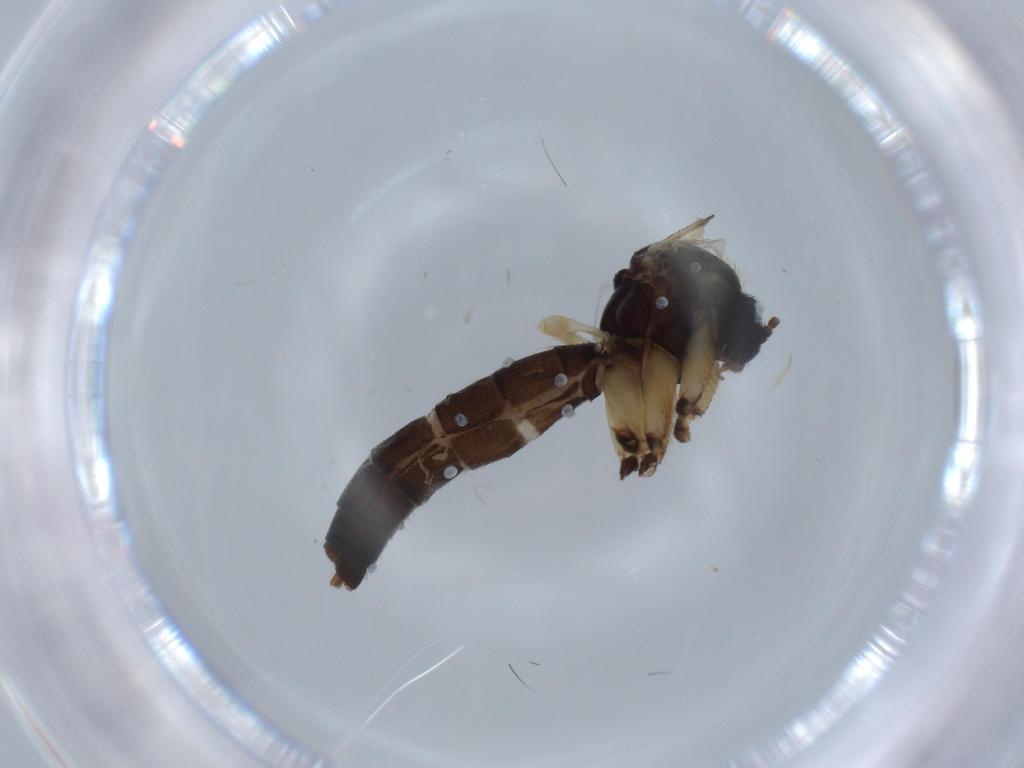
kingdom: Animalia
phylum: Arthropoda
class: Insecta
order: Diptera
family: Mycetophilidae
